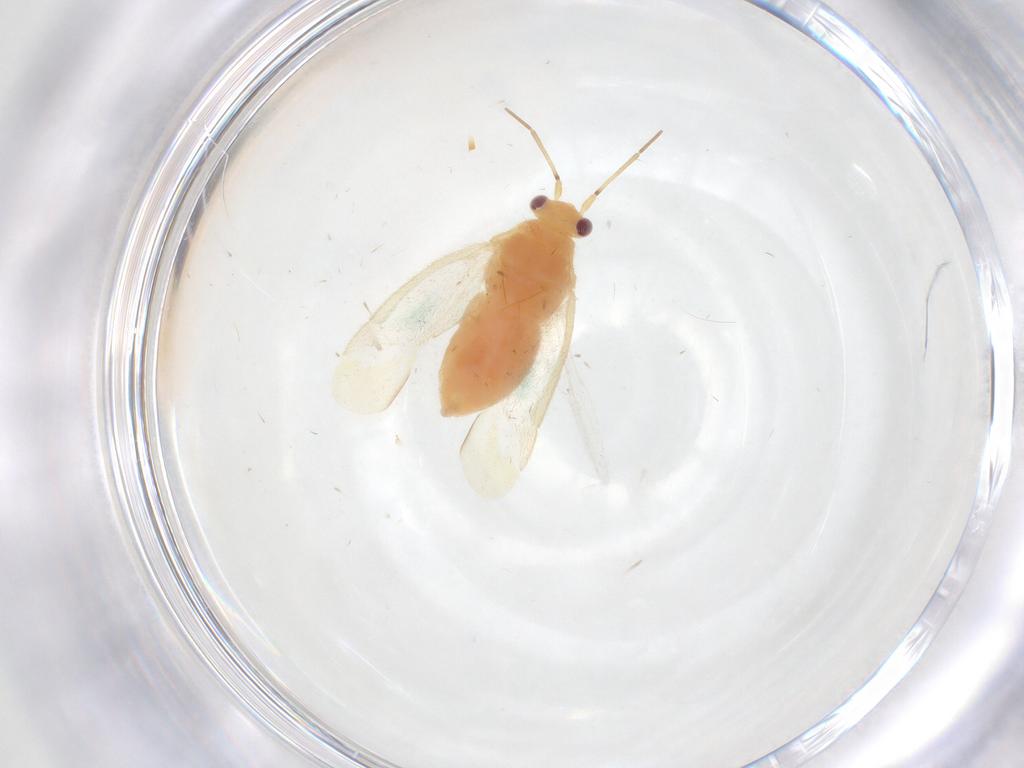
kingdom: Animalia
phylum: Arthropoda
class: Insecta
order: Hemiptera
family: Miridae
